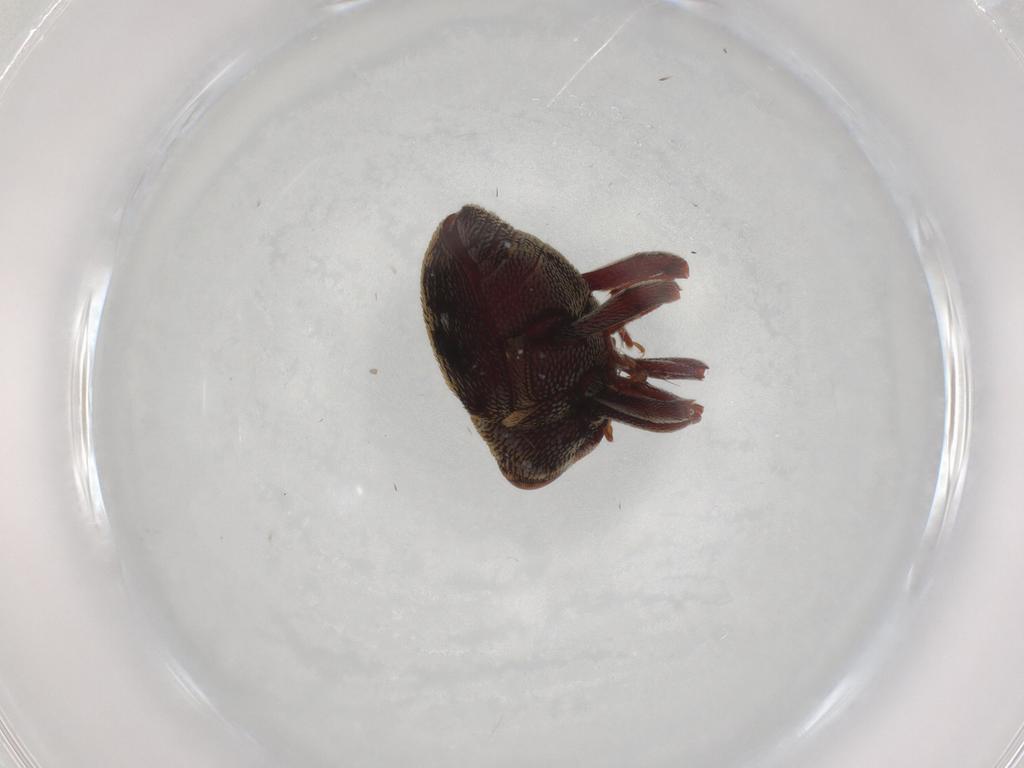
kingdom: Animalia
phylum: Arthropoda
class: Insecta
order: Coleoptera
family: Curculionidae
